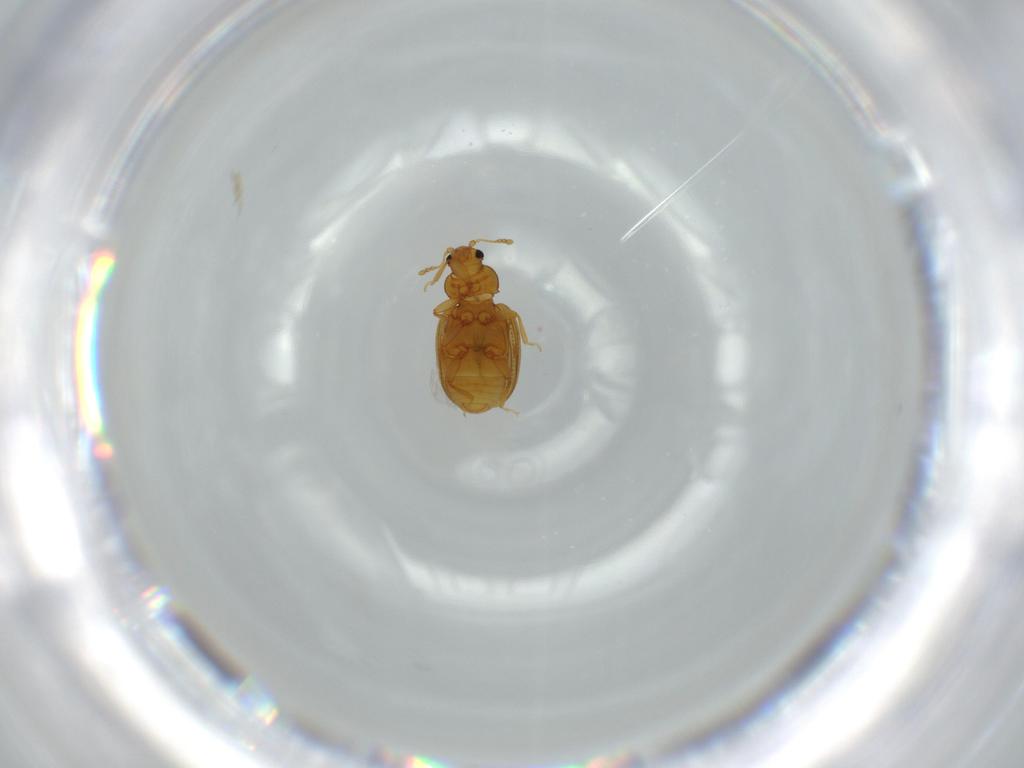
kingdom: Animalia
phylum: Arthropoda
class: Insecta
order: Coleoptera
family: Latridiidae
